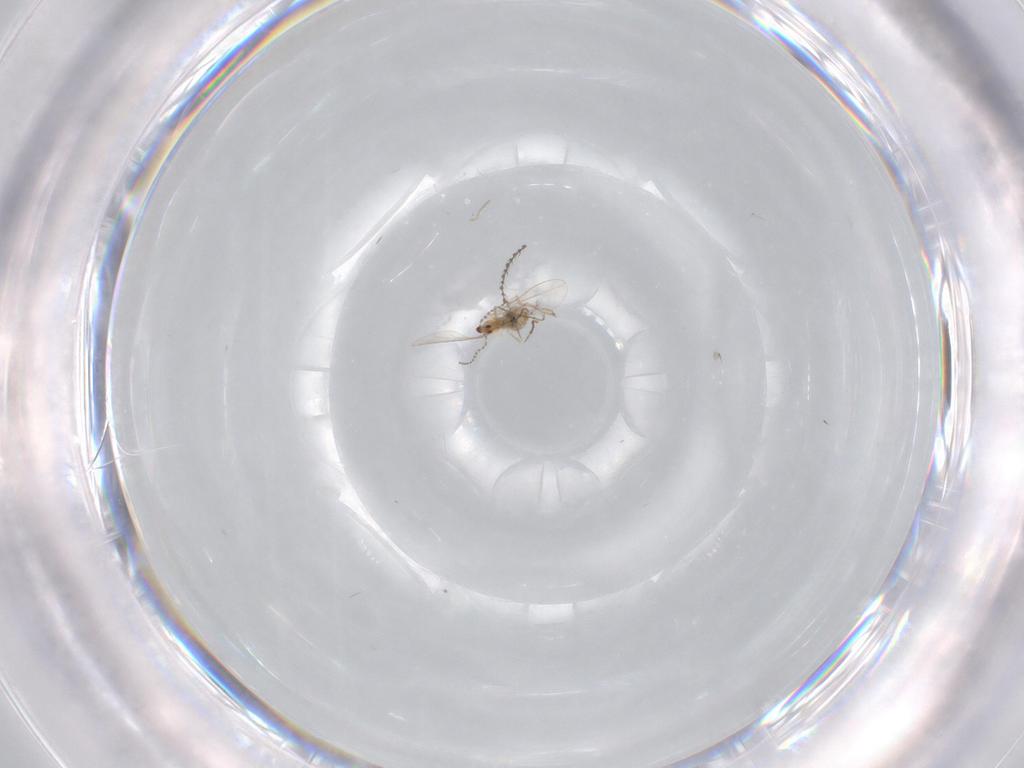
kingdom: Animalia
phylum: Arthropoda
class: Insecta
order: Diptera
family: Cecidomyiidae
